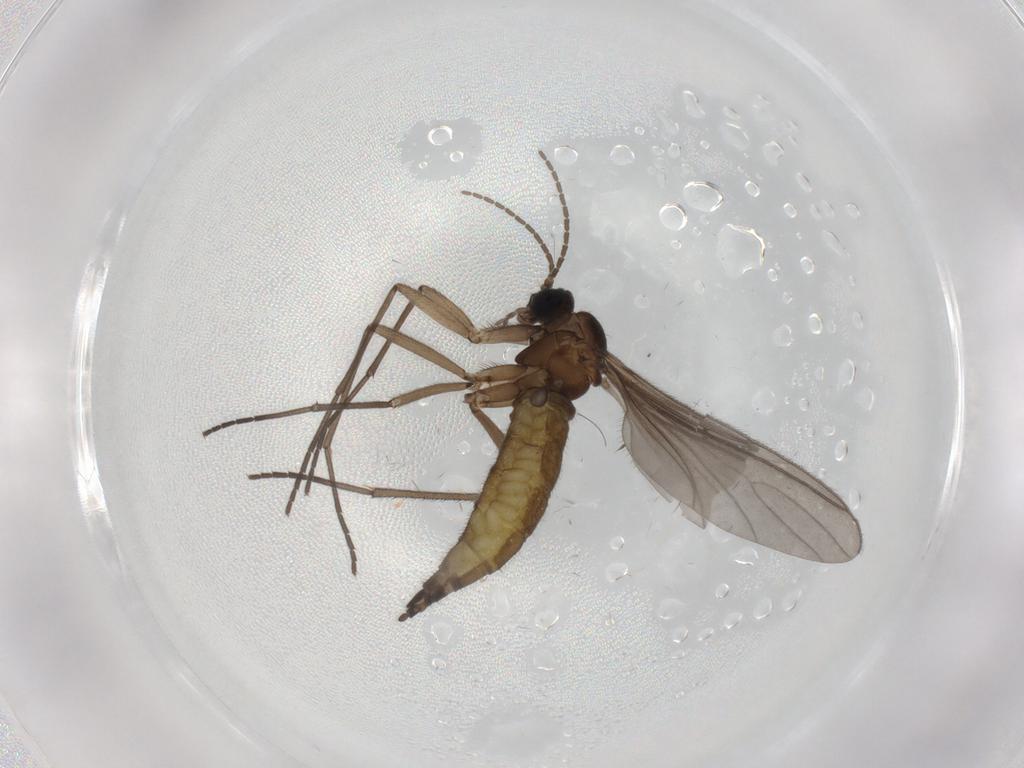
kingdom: Animalia
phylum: Arthropoda
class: Insecta
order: Diptera
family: Sciaridae
